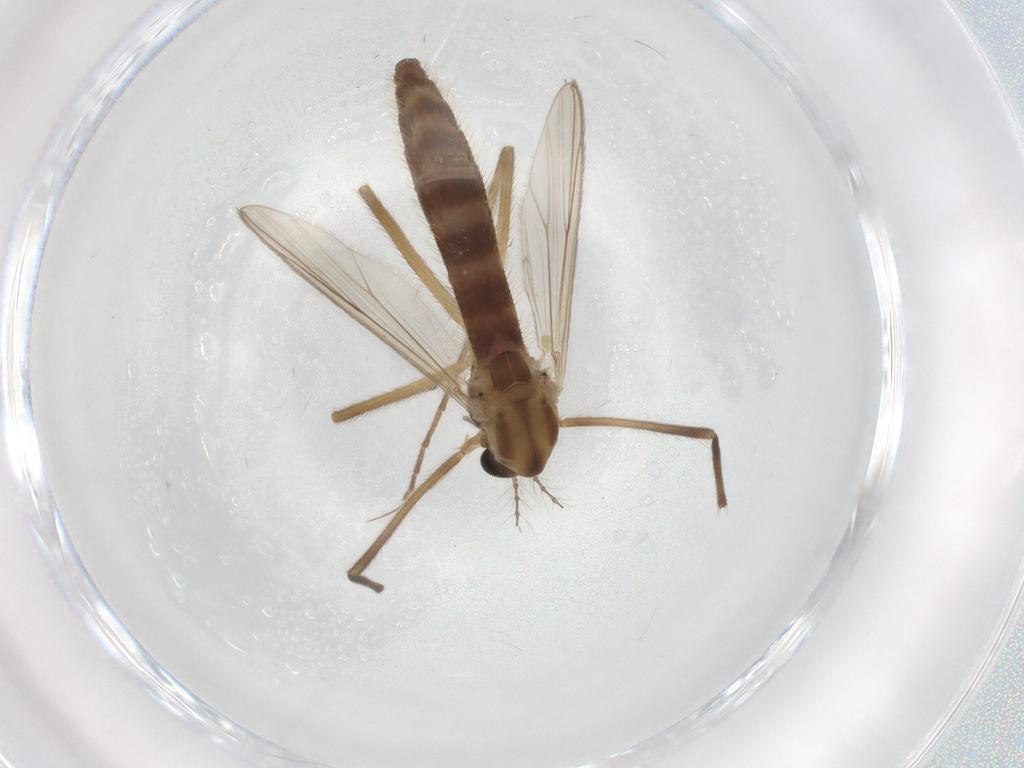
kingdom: Animalia
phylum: Arthropoda
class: Insecta
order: Diptera
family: Chironomidae
